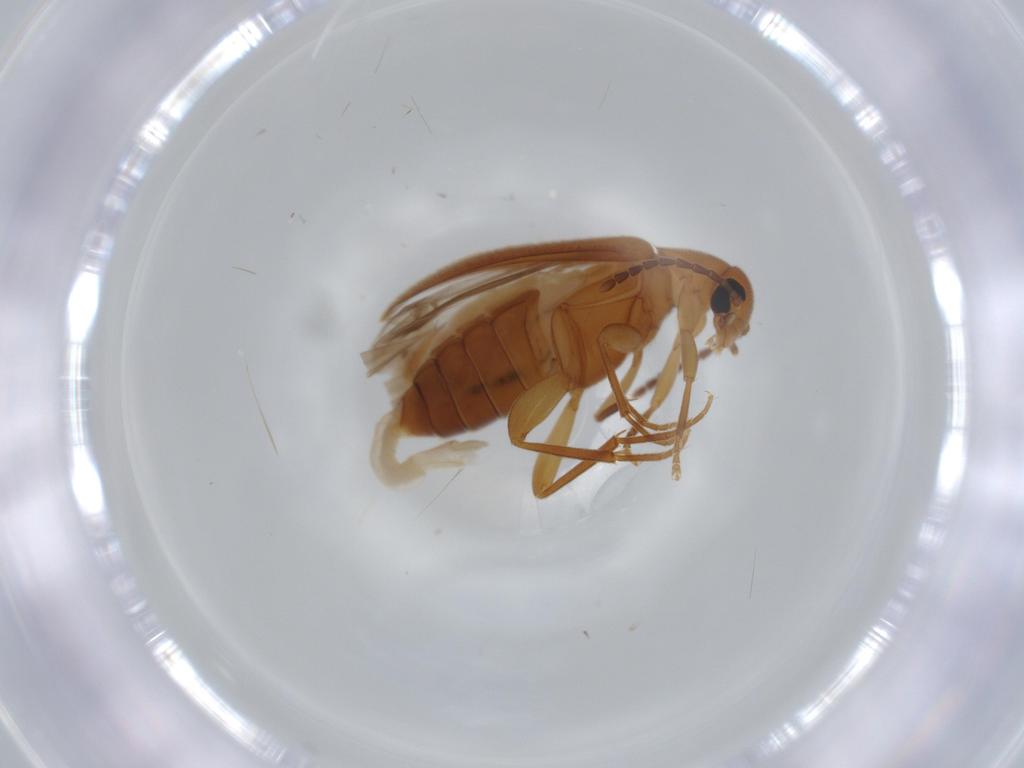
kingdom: Animalia
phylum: Arthropoda
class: Insecta
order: Coleoptera
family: Scraptiidae
